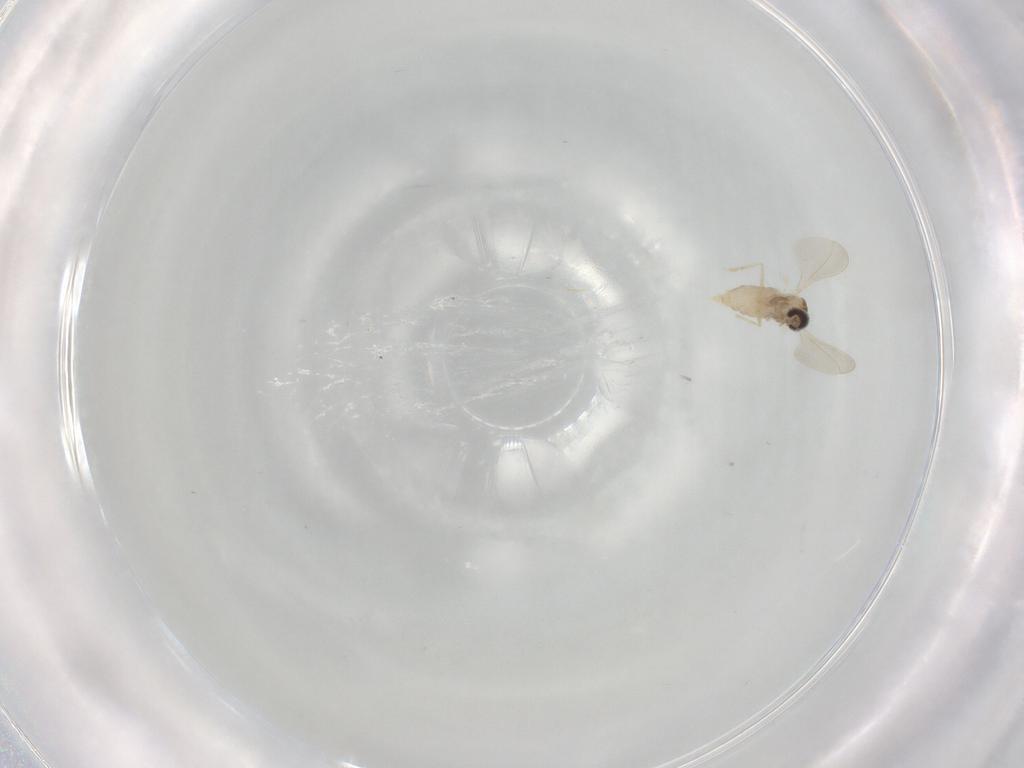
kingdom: Animalia
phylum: Arthropoda
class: Insecta
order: Diptera
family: Cecidomyiidae
